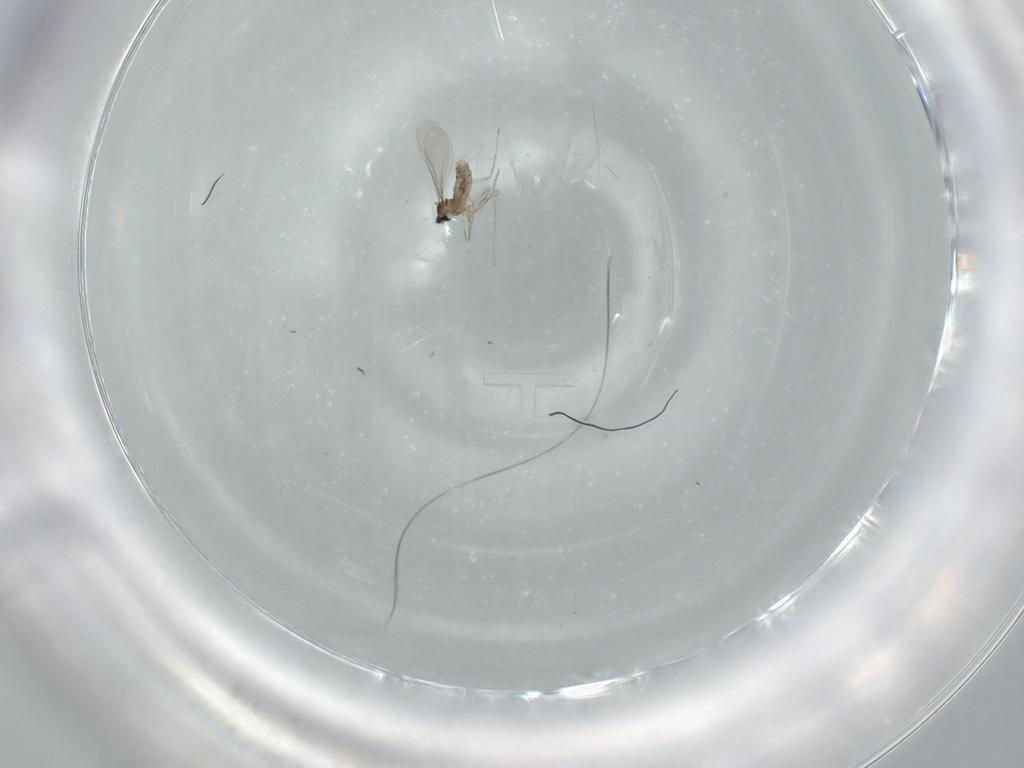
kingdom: Animalia
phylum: Arthropoda
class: Insecta
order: Diptera
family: Cecidomyiidae
